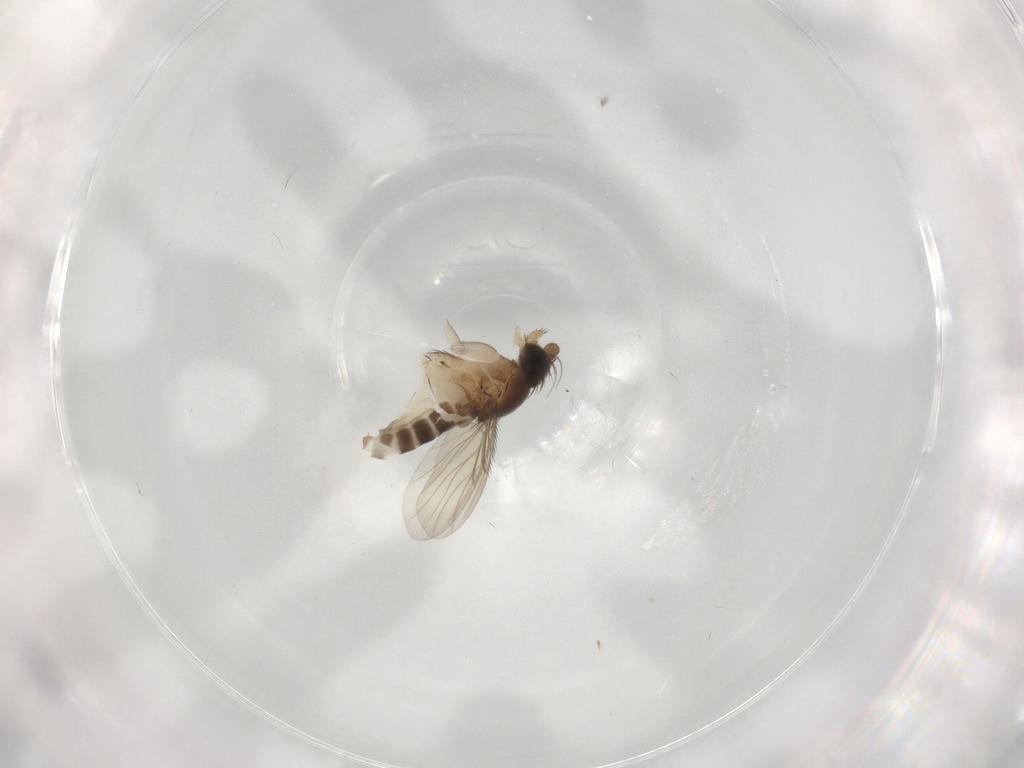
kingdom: Animalia
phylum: Arthropoda
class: Insecta
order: Diptera
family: Phoridae
